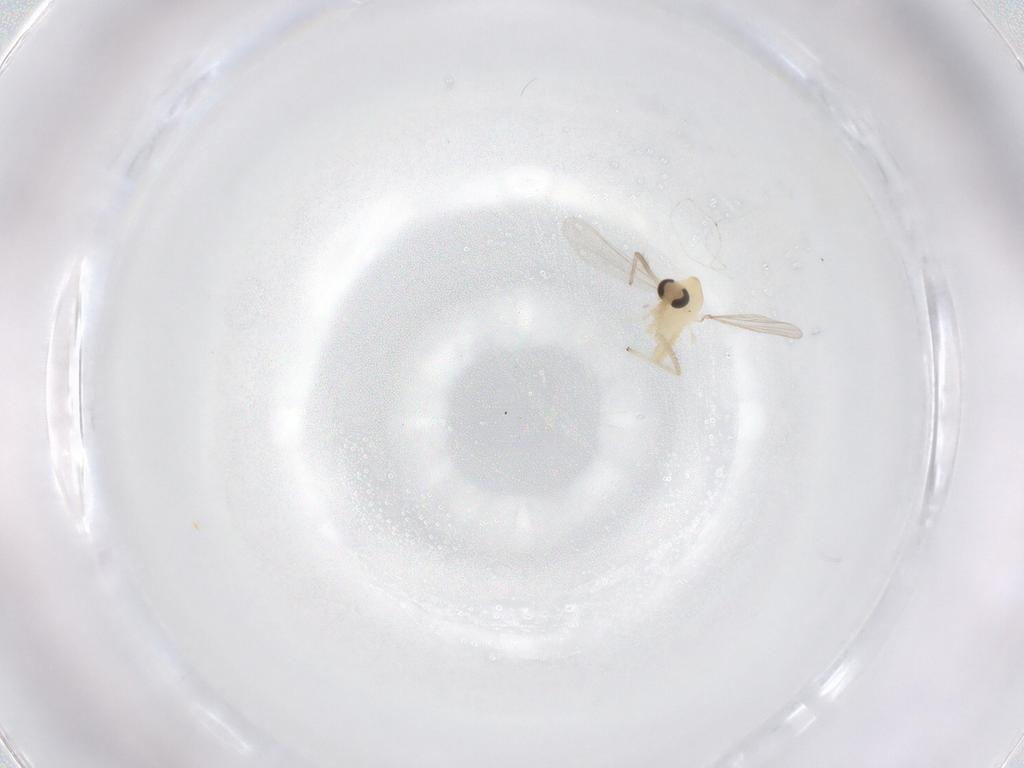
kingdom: Animalia
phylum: Arthropoda
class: Insecta
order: Diptera
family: Chironomidae
